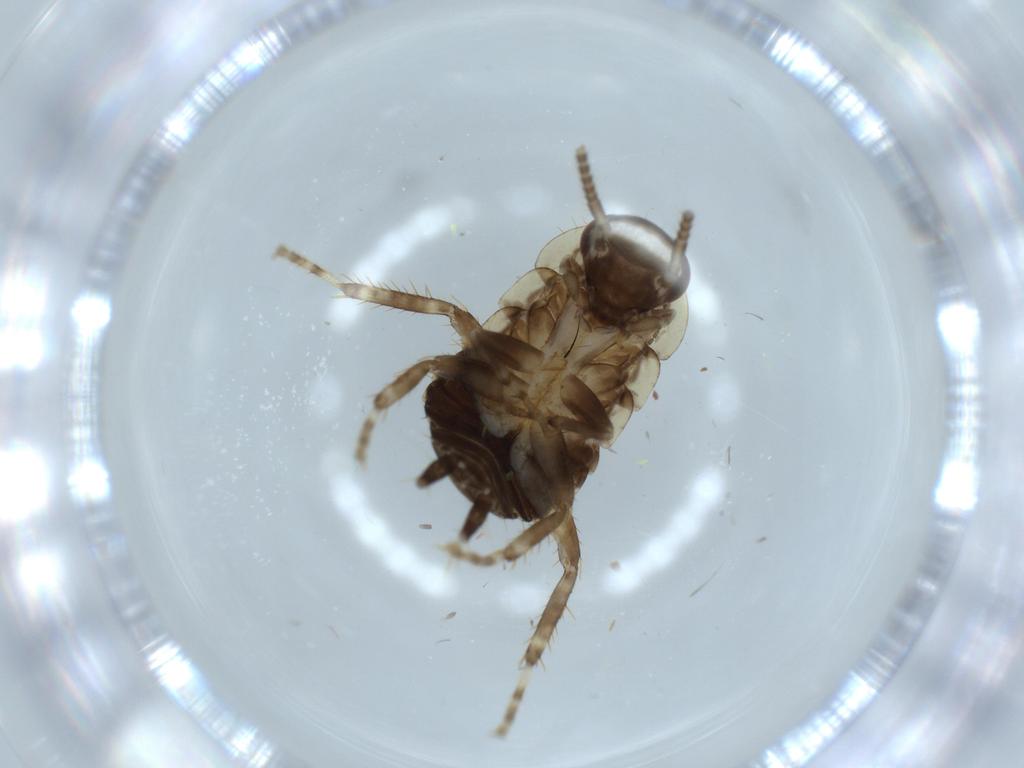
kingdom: Animalia
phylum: Arthropoda
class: Insecta
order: Blattodea
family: Ectobiidae
